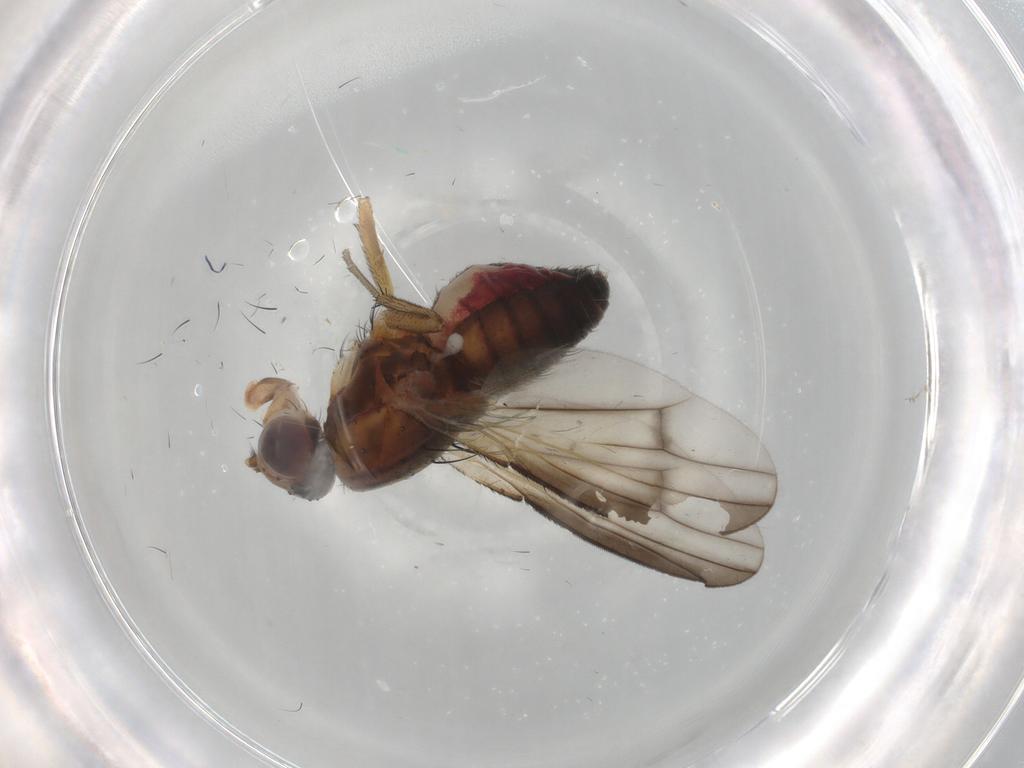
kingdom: Animalia
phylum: Arthropoda
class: Insecta
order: Diptera
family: Heleomyzidae
